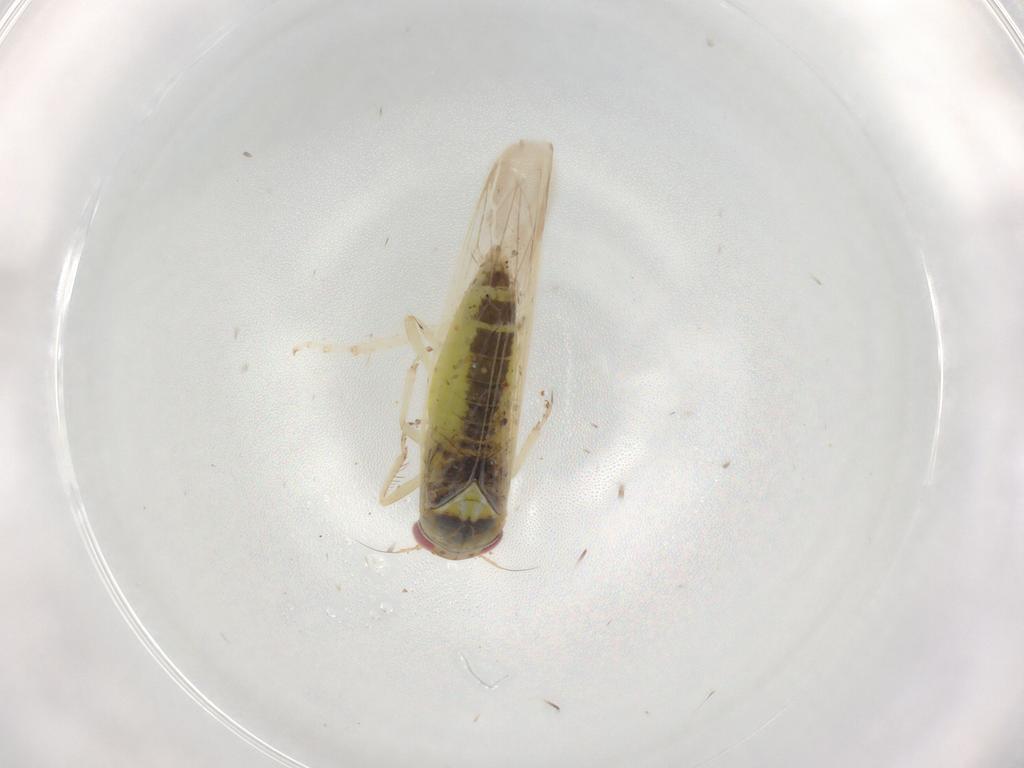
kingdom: Animalia
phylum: Arthropoda
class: Insecta
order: Hemiptera
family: Cicadellidae
